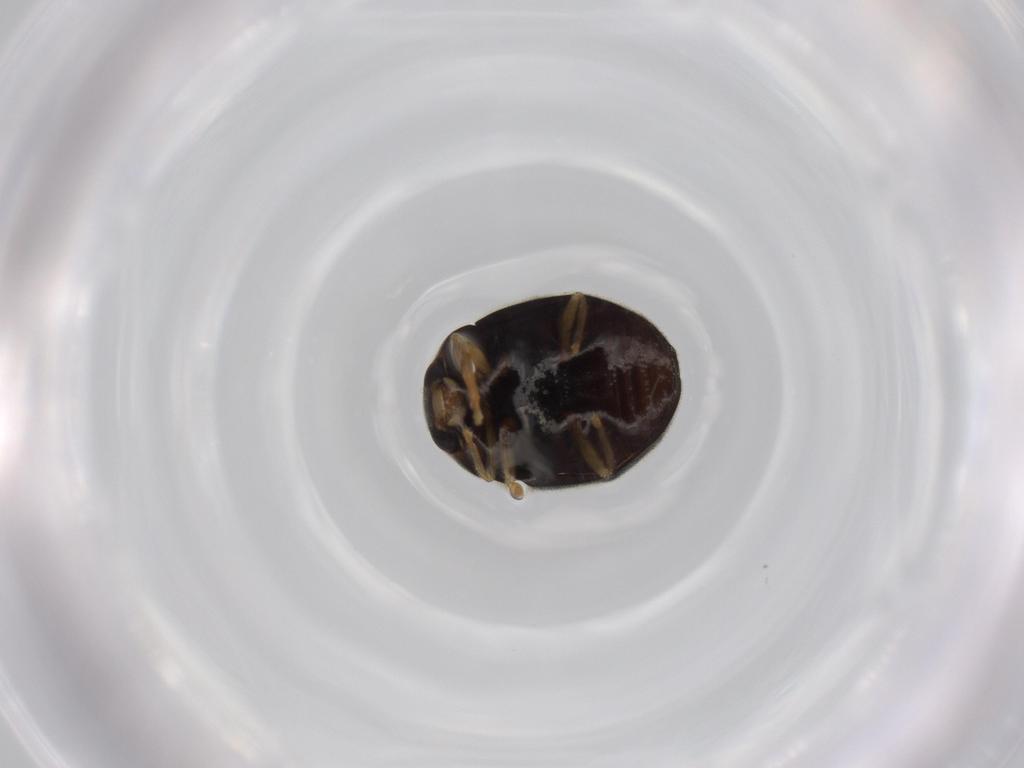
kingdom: Animalia
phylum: Arthropoda
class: Insecta
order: Coleoptera
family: Coccinellidae
